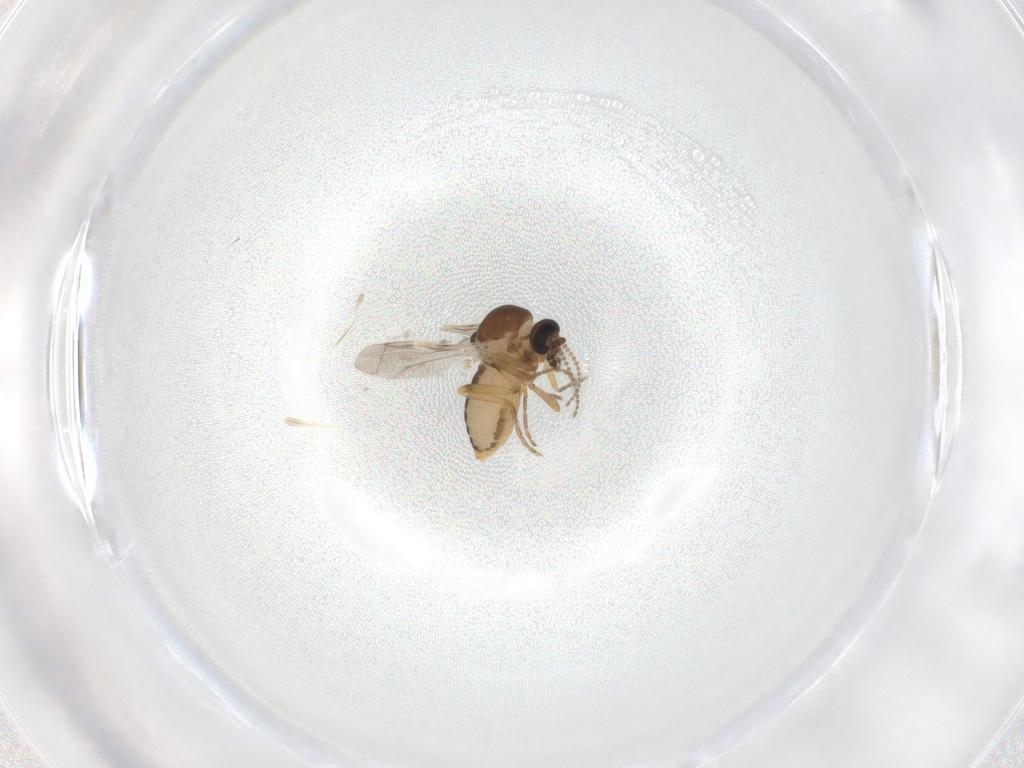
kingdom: Animalia
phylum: Arthropoda
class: Insecta
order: Diptera
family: Ceratopogonidae
